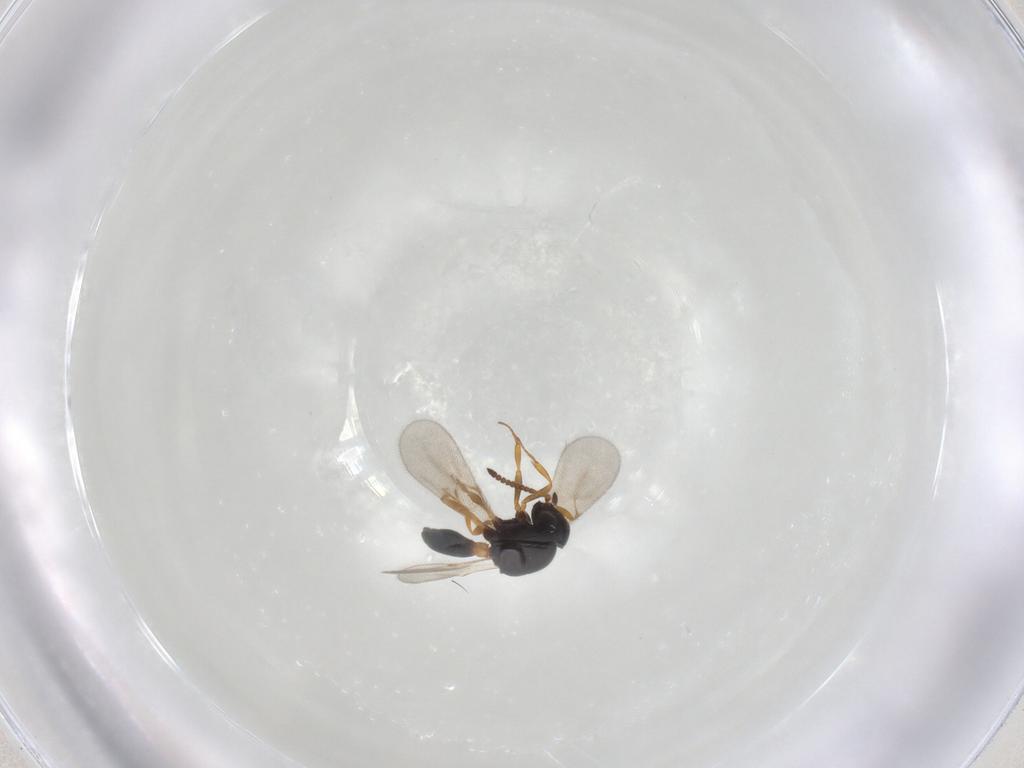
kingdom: Animalia
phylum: Arthropoda
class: Insecta
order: Hymenoptera
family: Scelionidae
